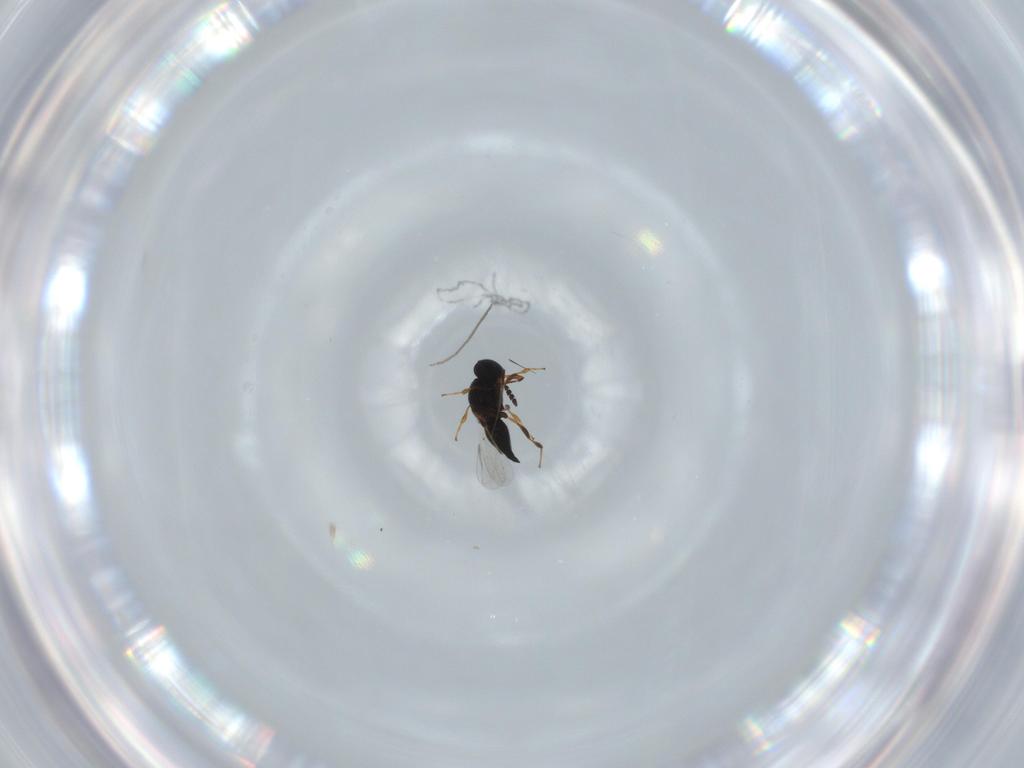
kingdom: Animalia
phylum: Arthropoda
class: Insecta
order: Hymenoptera
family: Platygastridae
